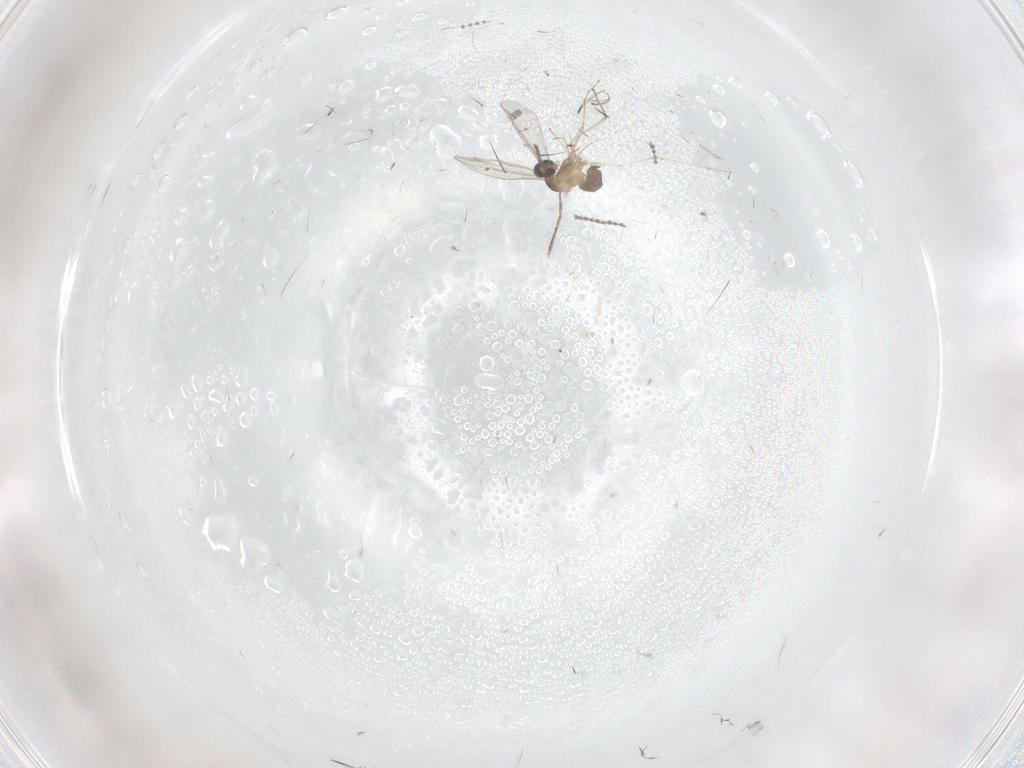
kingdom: Animalia
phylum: Arthropoda
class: Insecta
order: Diptera
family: Cecidomyiidae
